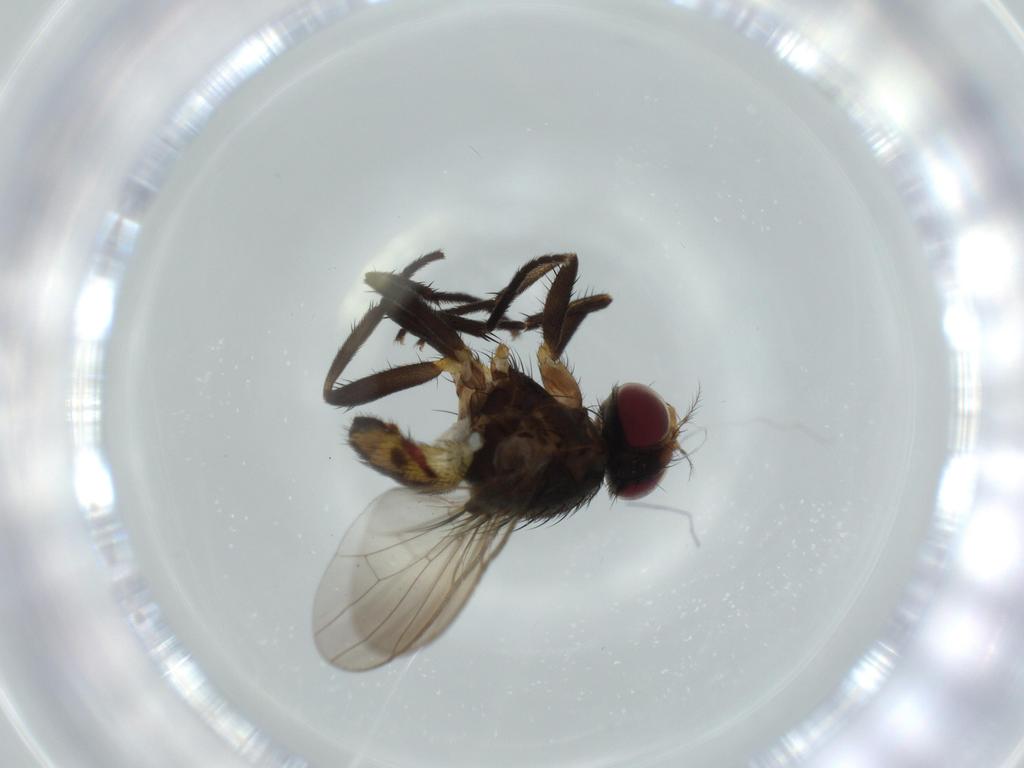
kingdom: Animalia
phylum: Arthropoda
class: Insecta
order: Diptera
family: Anthomyiidae
